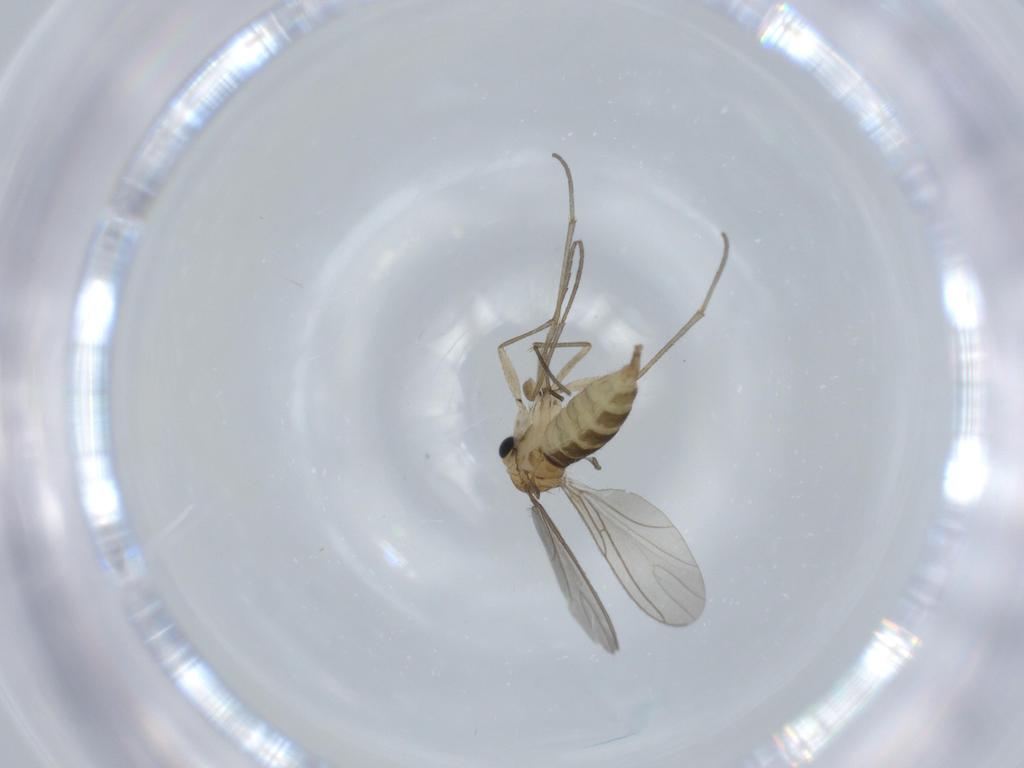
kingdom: Animalia
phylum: Arthropoda
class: Insecta
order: Diptera
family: Sciaridae
